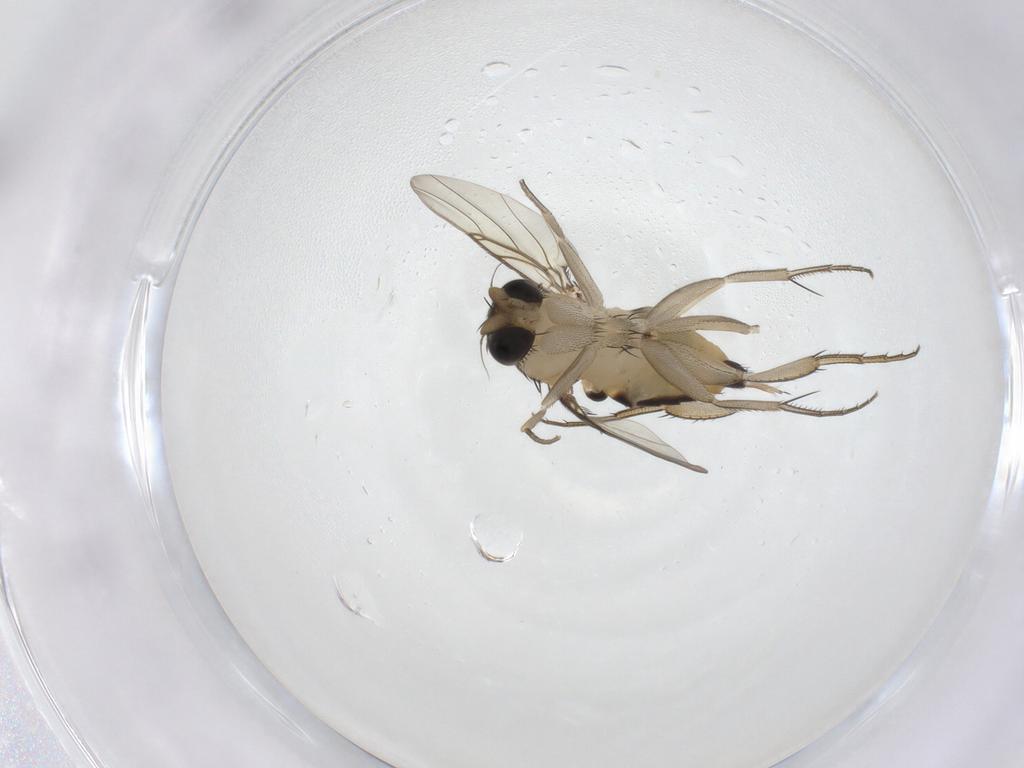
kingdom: Animalia
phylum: Arthropoda
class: Insecta
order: Diptera
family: Phoridae
